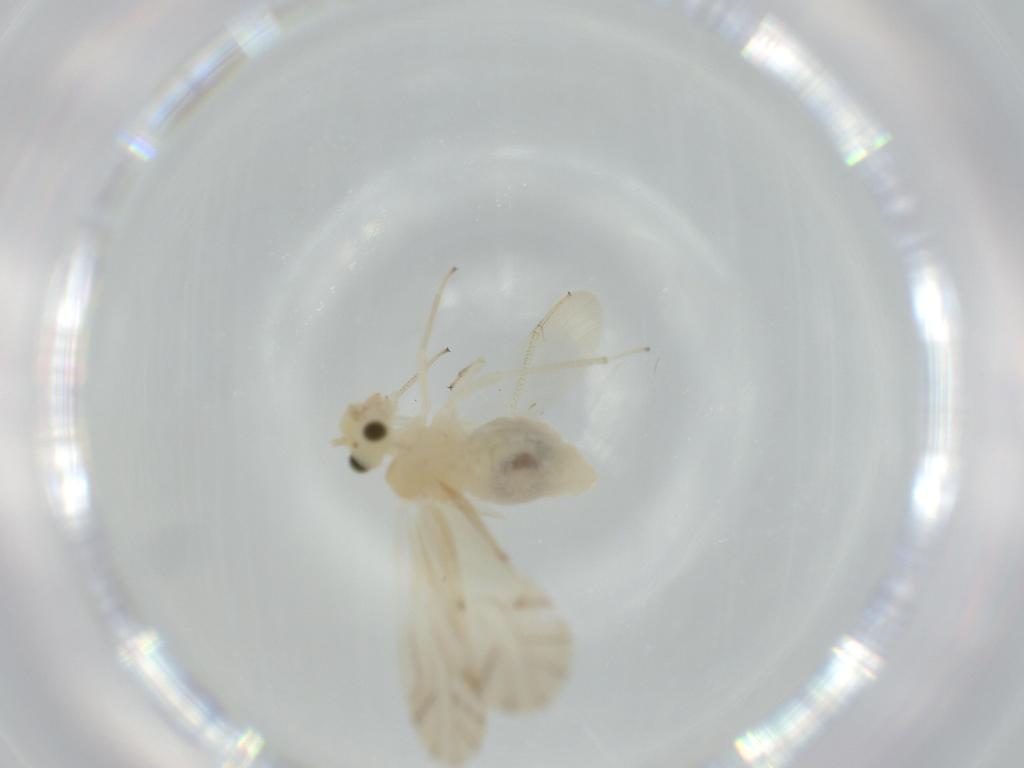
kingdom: Animalia
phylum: Arthropoda
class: Insecta
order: Psocodea
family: Caeciliusidae
